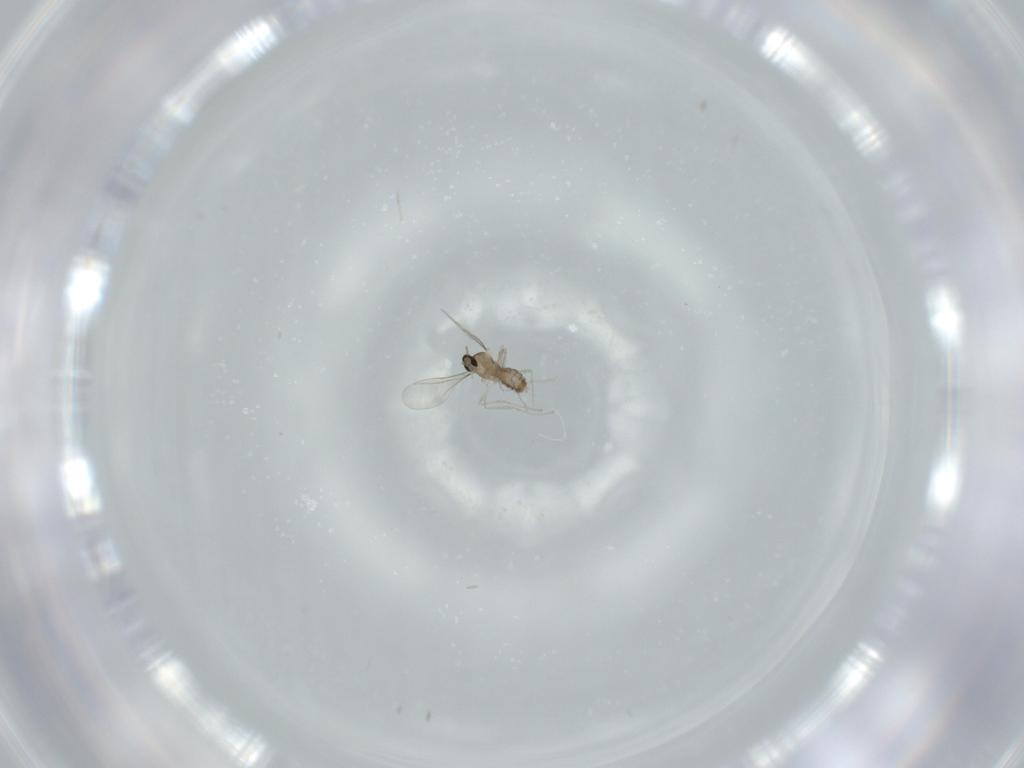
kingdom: Animalia
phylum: Arthropoda
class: Insecta
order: Diptera
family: Cecidomyiidae
